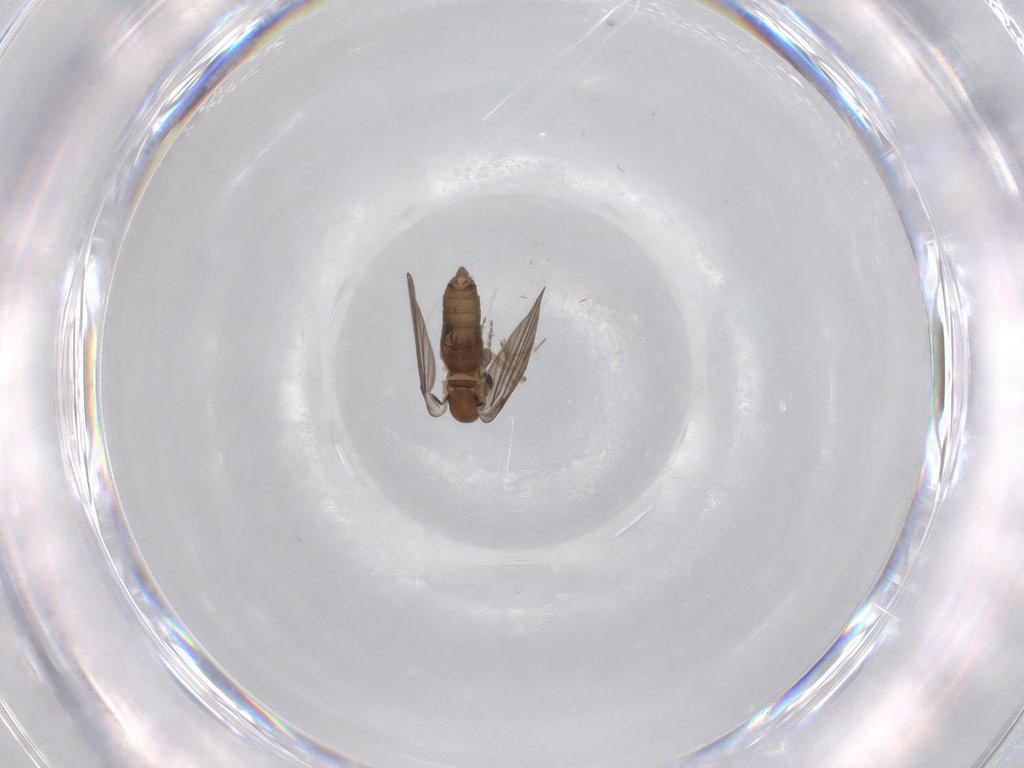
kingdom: Animalia
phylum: Arthropoda
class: Insecta
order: Diptera
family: Psychodidae
